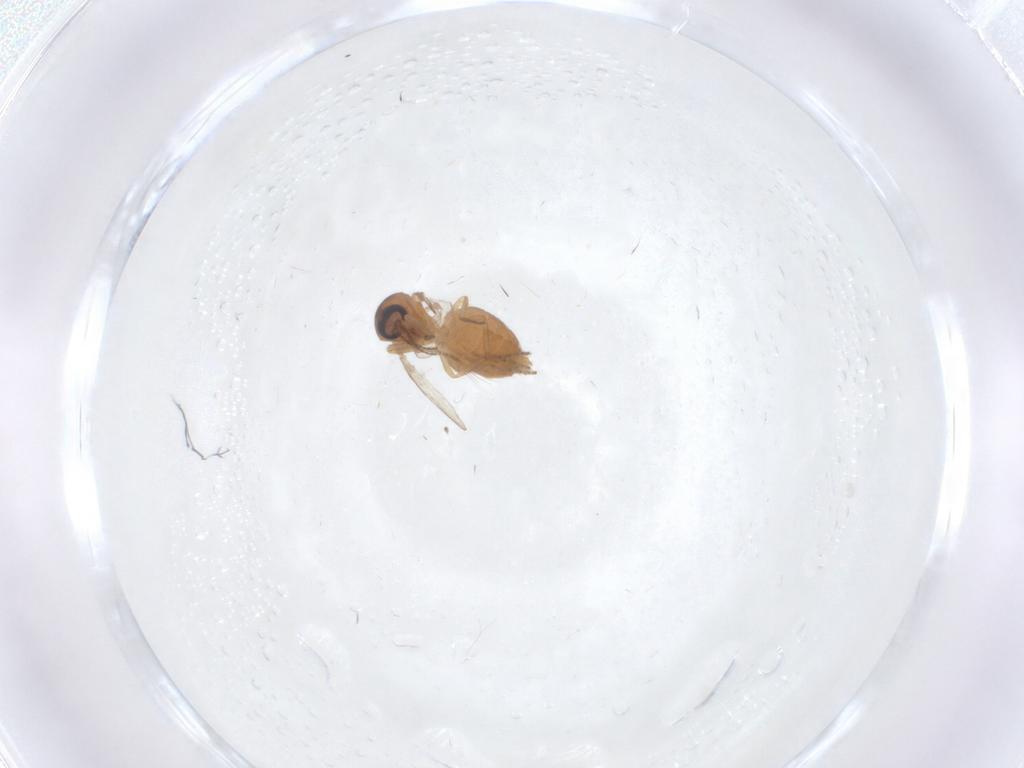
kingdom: Animalia
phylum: Arthropoda
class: Insecta
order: Diptera
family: Ceratopogonidae
